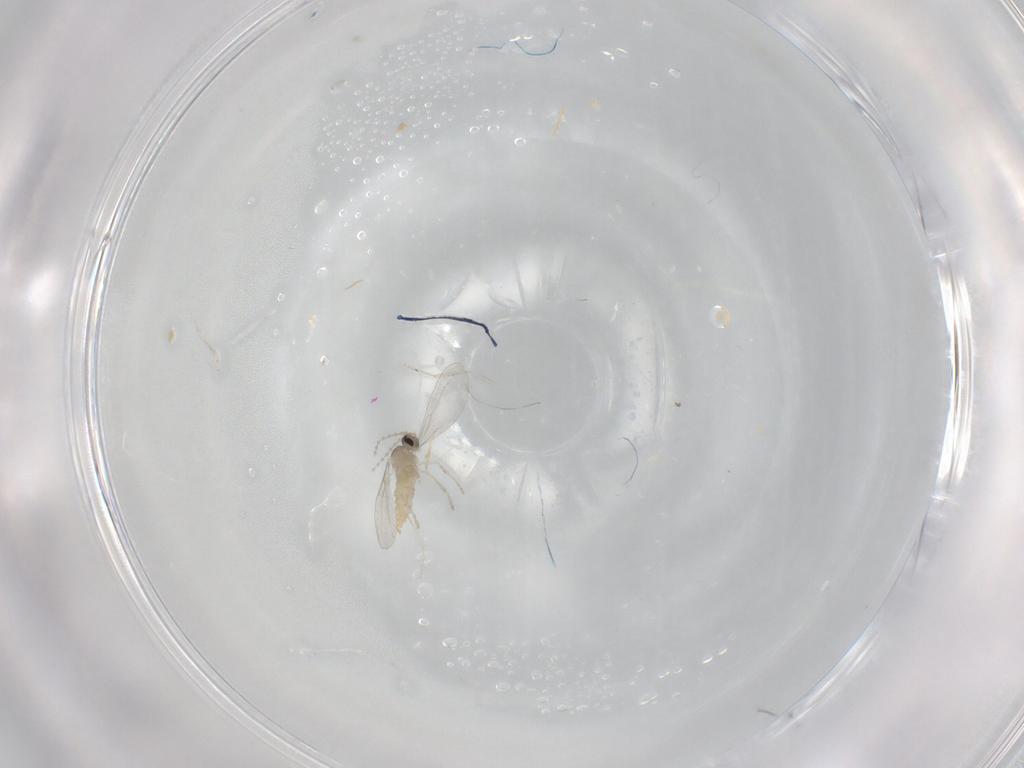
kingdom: Animalia
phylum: Arthropoda
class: Insecta
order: Diptera
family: Cecidomyiidae
